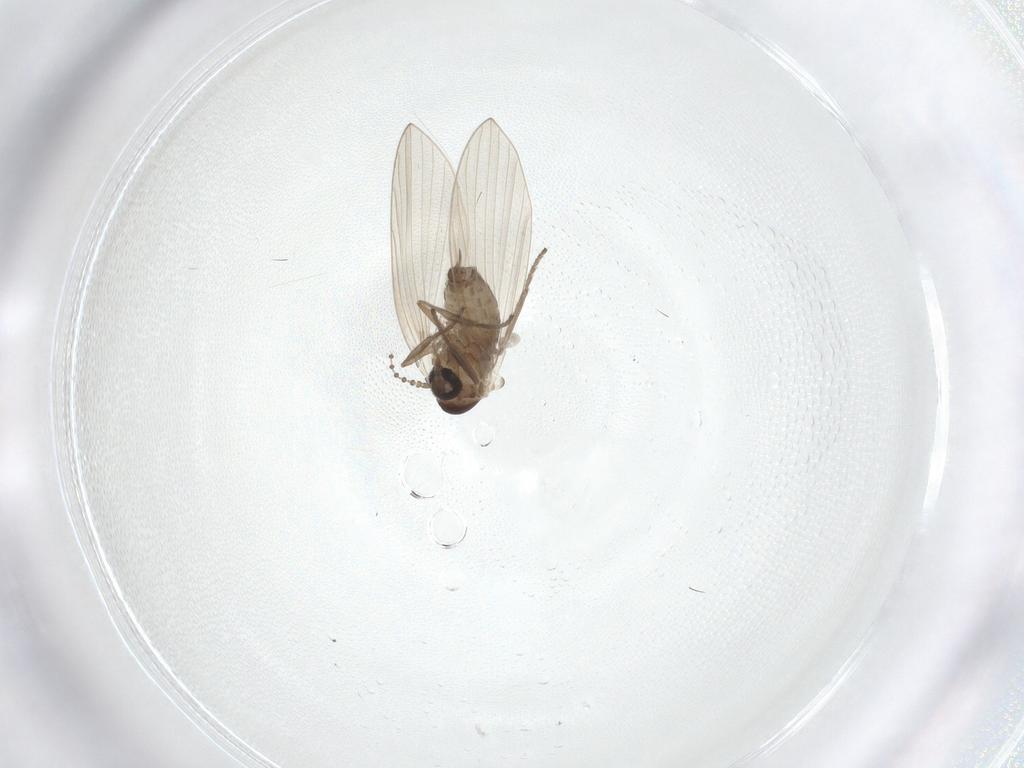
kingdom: Animalia
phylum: Arthropoda
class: Insecta
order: Diptera
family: Psychodidae
